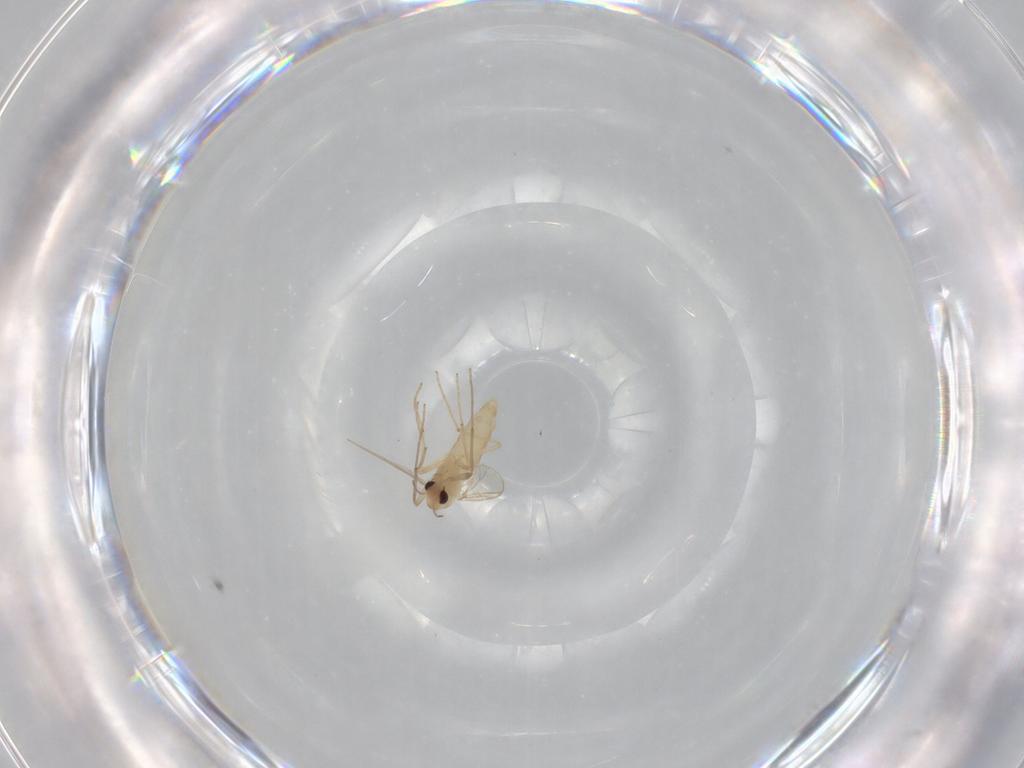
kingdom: Animalia
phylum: Arthropoda
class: Insecta
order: Diptera
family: Chironomidae
